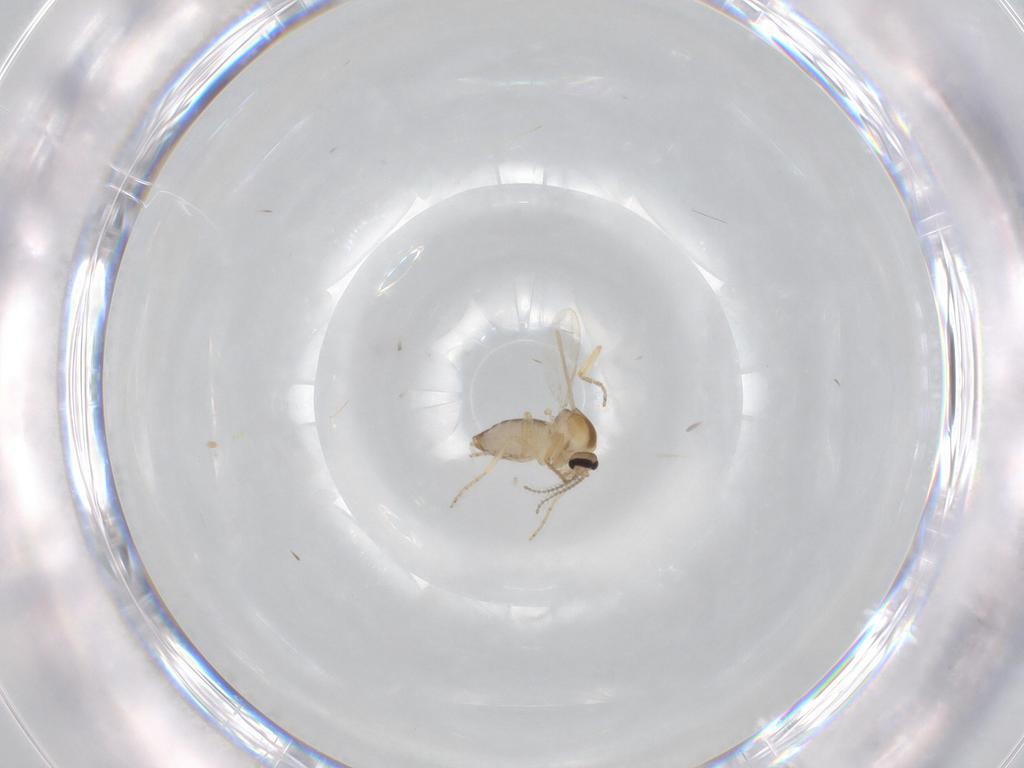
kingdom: Animalia
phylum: Arthropoda
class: Insecta
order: Diptera
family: Ceratopogonidae
